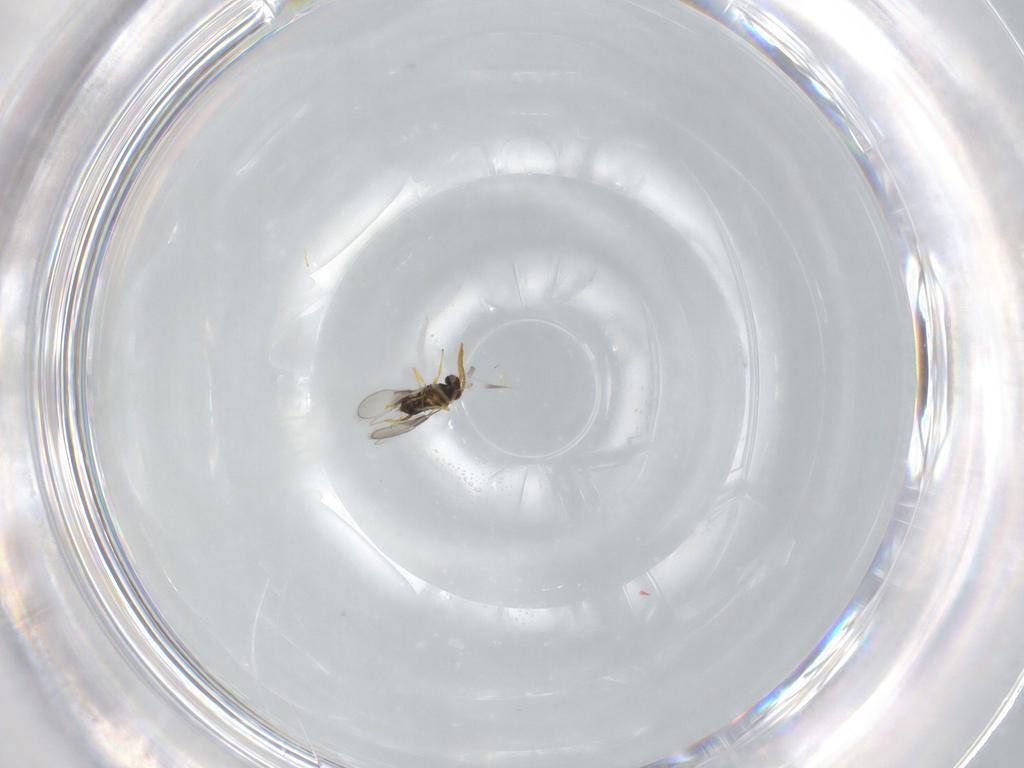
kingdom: Animalia
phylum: Arthropoda
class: Insecta
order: Hymenoptera
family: Aphelinidae
